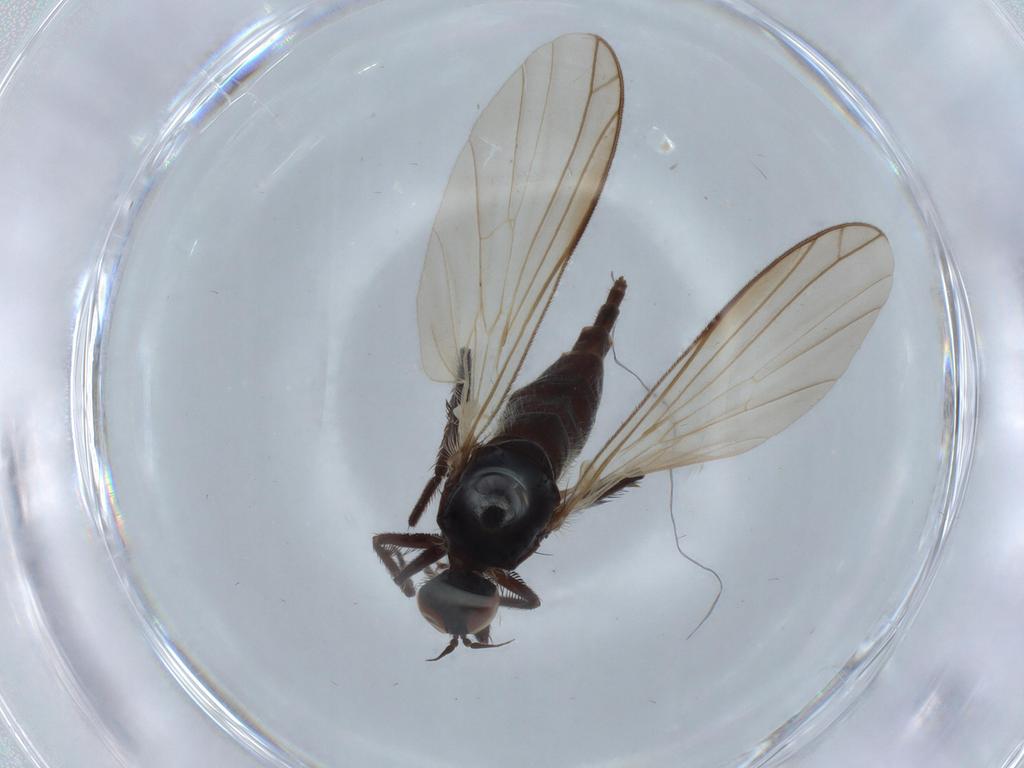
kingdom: Animalia
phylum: Arthropoda
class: Insecta
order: Diptera
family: Empididae
